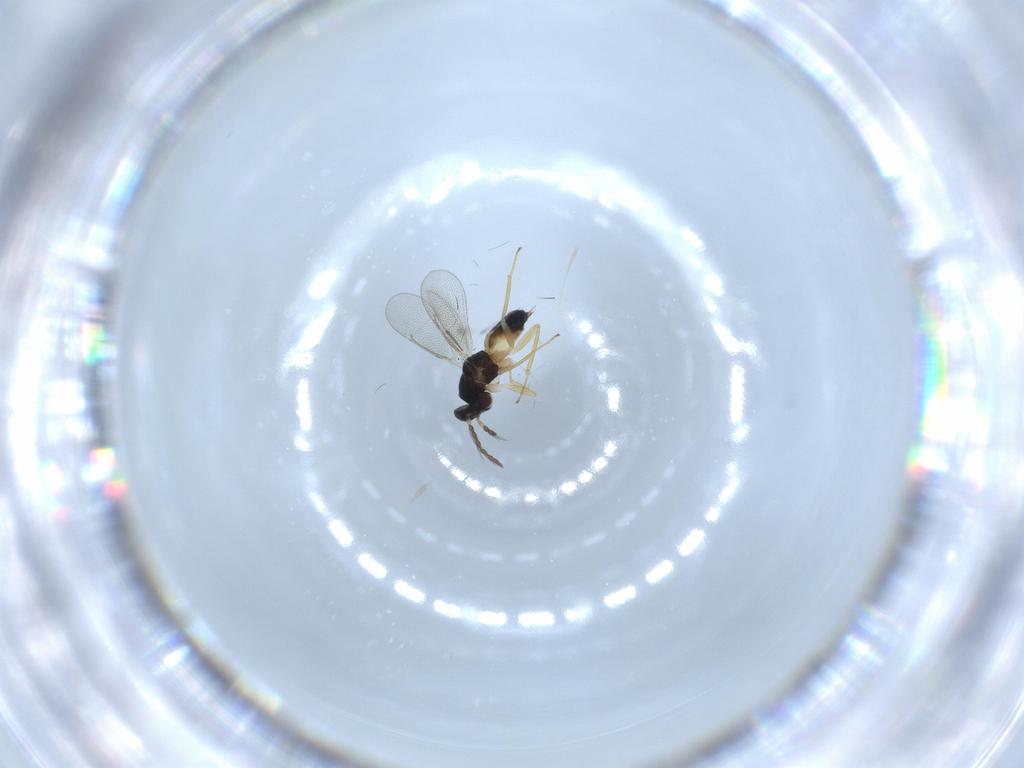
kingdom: Animalia
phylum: Arthropoda
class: Insecta
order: Hymenoptera
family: Eulophidae
